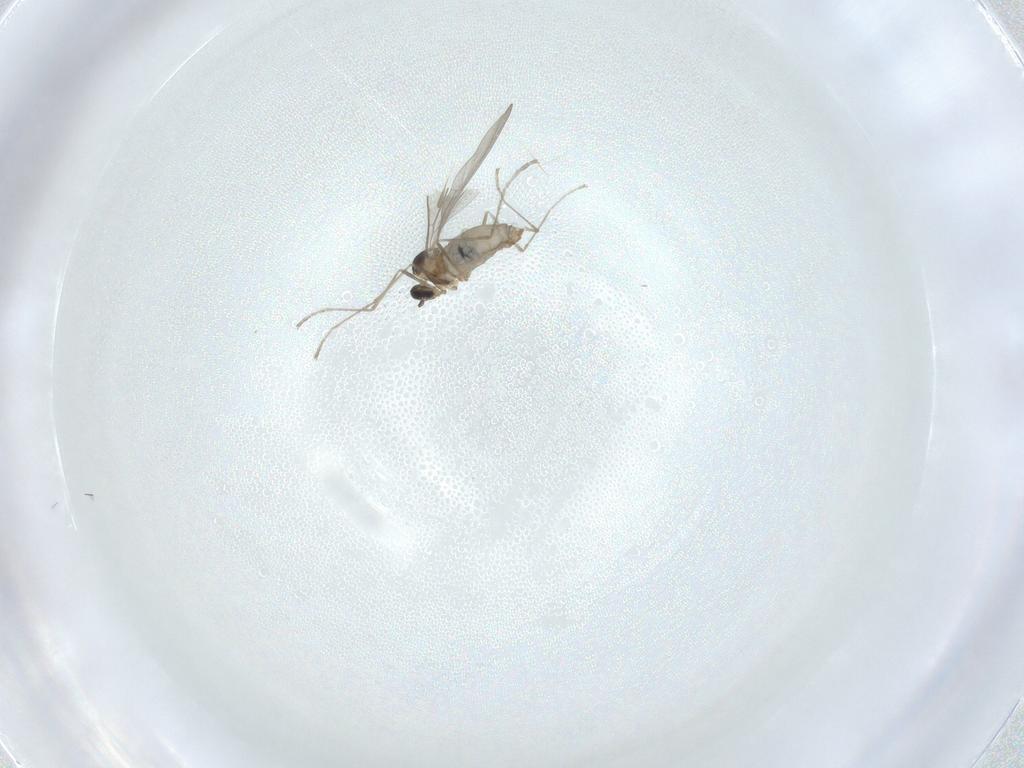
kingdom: Animalia
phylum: Arthropoda
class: Insecta
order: Diptera
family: Cecidomyiidae
